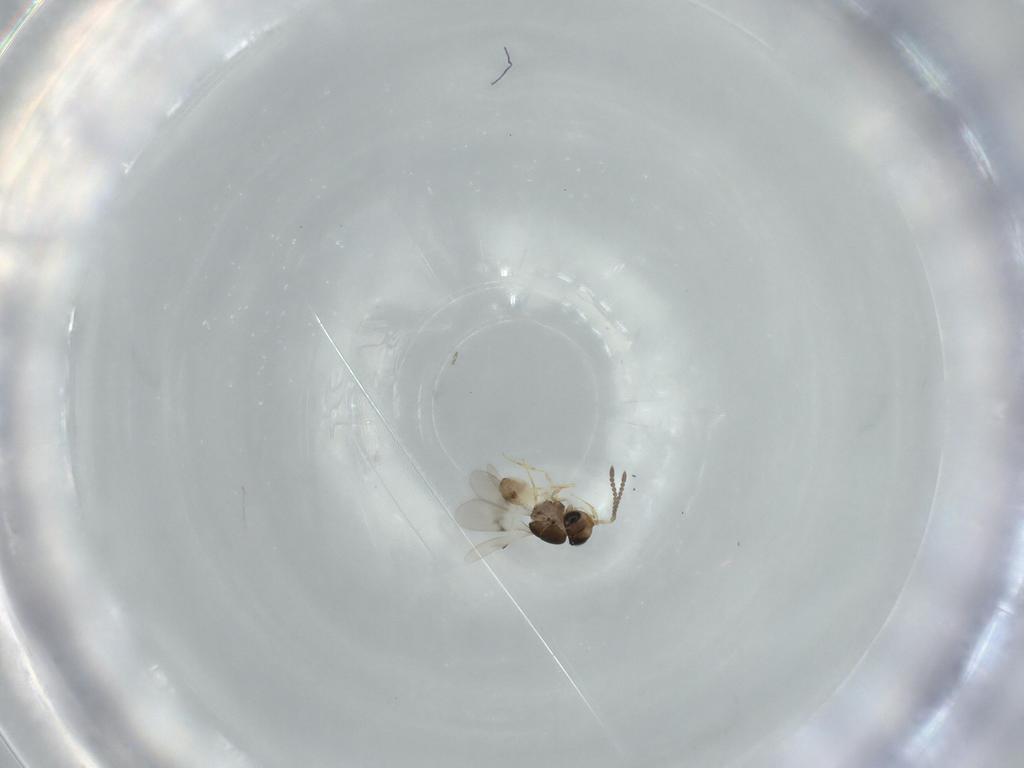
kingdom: Animalia
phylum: Arthropoda
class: Insecta
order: Hymenoptera
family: Scelionidae
